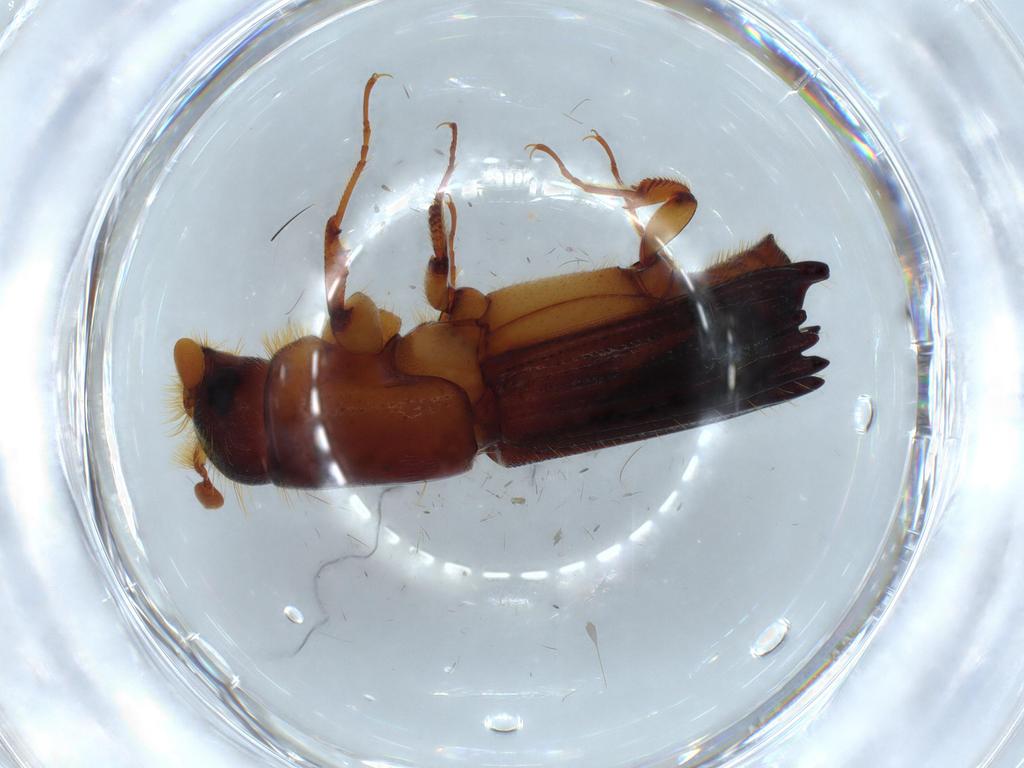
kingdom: Animalia
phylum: Arthropoda
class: Insecta
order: Coleoptera
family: Curculionidae
